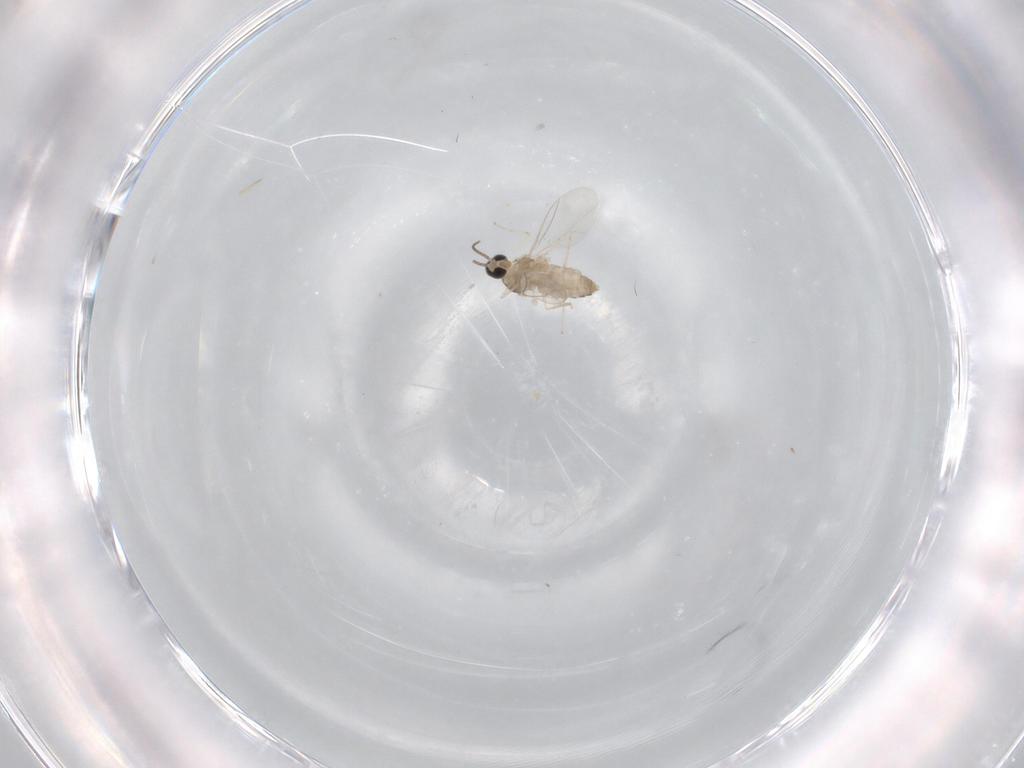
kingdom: Animalia
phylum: Arthropoda
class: Insecta
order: Diptera
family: Cecidomyiidae
